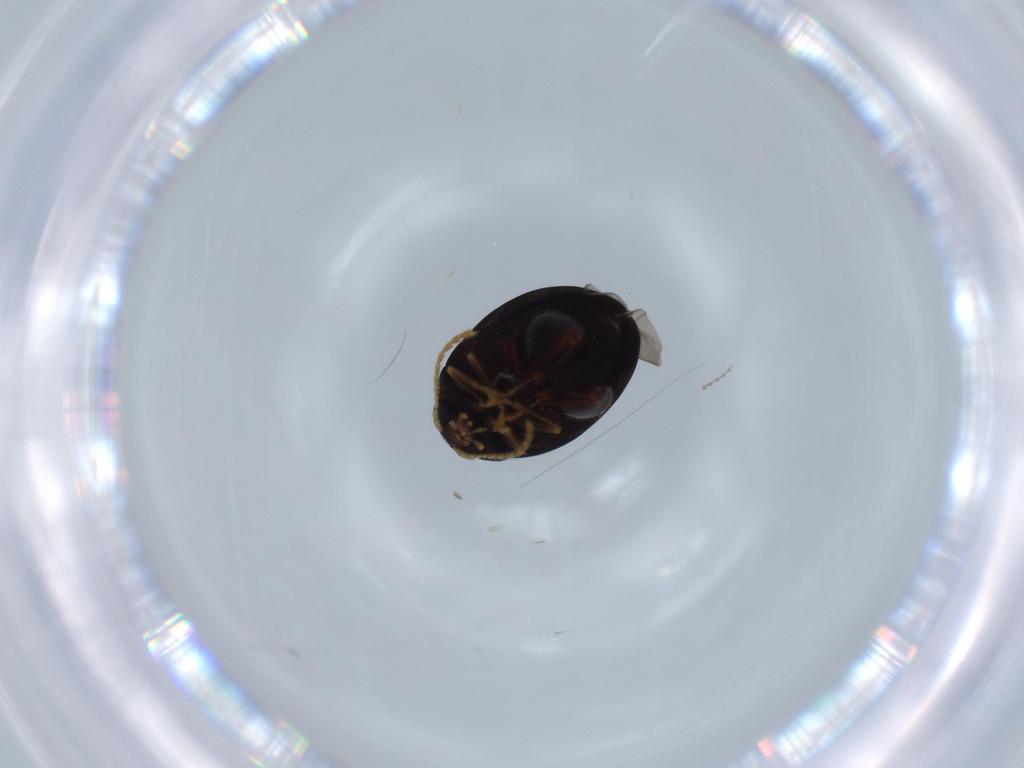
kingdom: Animalia
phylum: Arthropoda
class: Insecta
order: Coleoptera
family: Chrysomelidae
